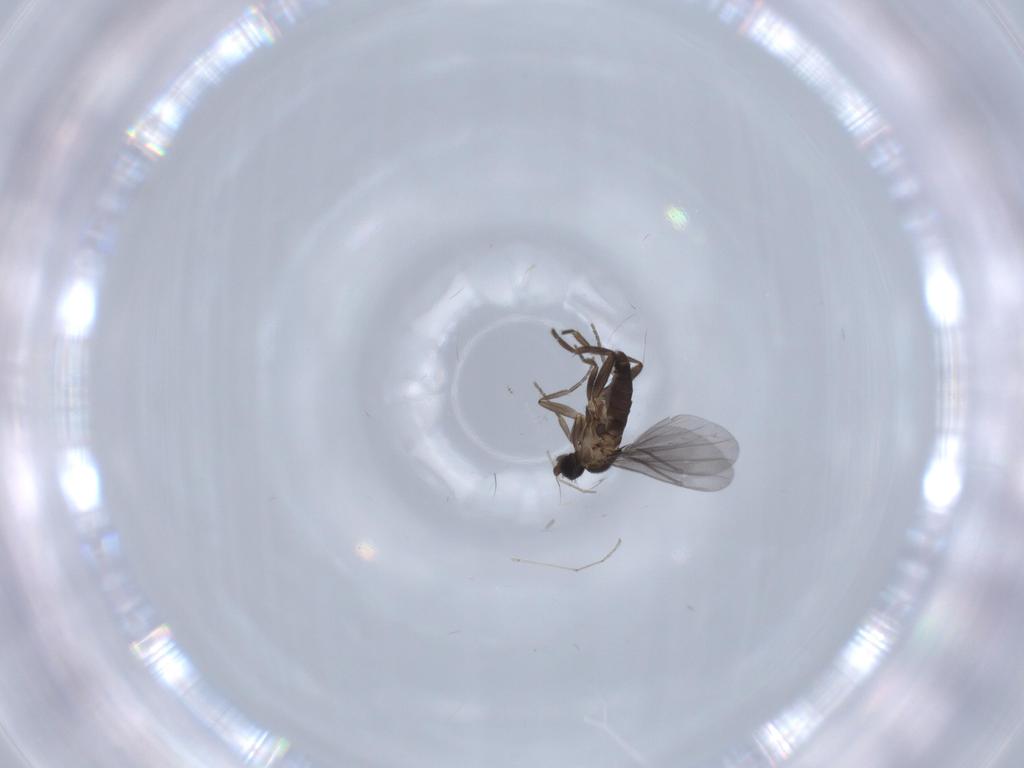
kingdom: Animalia
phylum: Arthropoda
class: Insecta
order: Diptera
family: Phoridae
